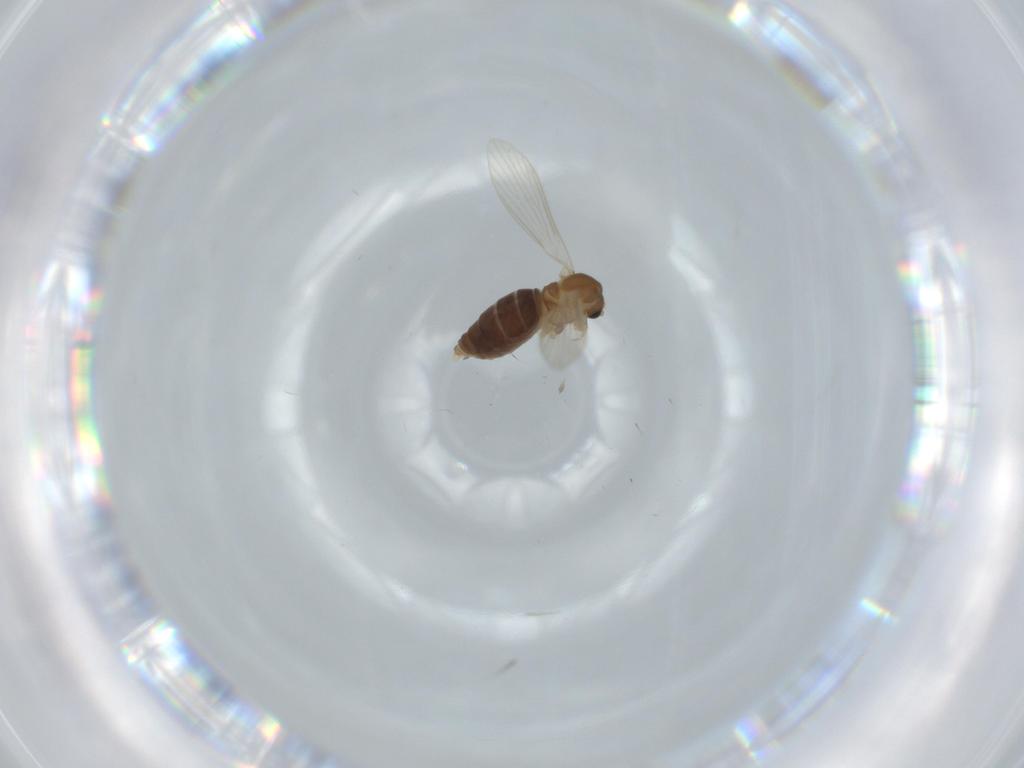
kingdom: Animalia
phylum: Arthropoda
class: Insecta
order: Diptera
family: Psychodidae
